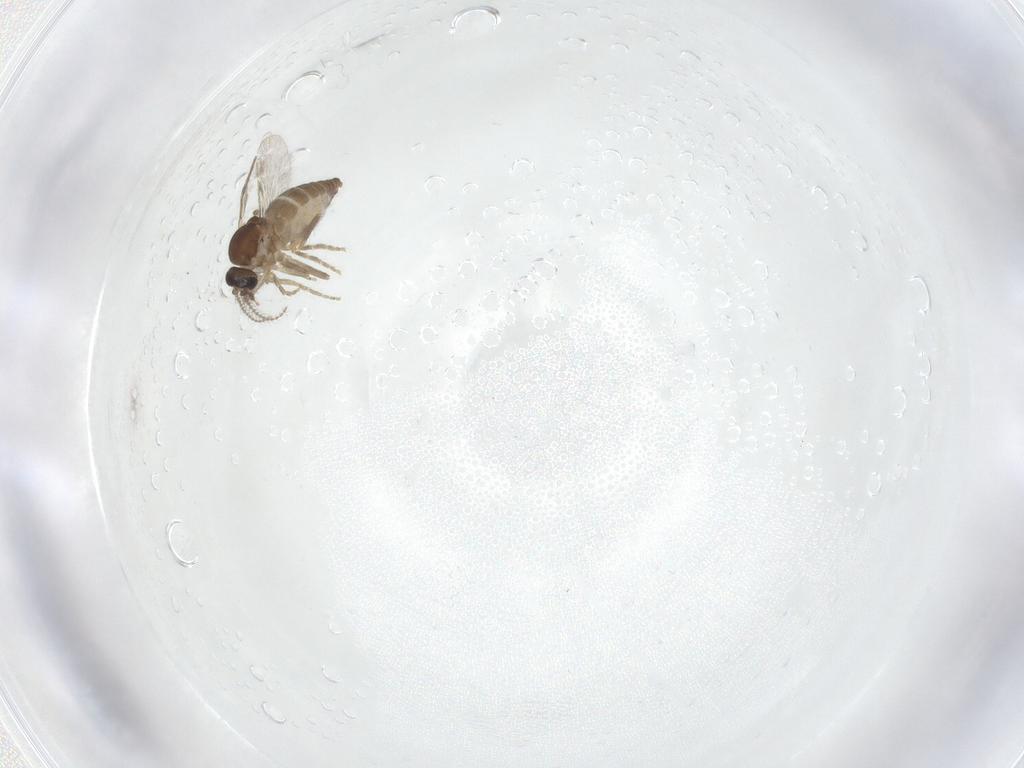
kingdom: Animalia
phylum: Arthropoda
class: Insecta
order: Diptera
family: Ceratopogonidae
